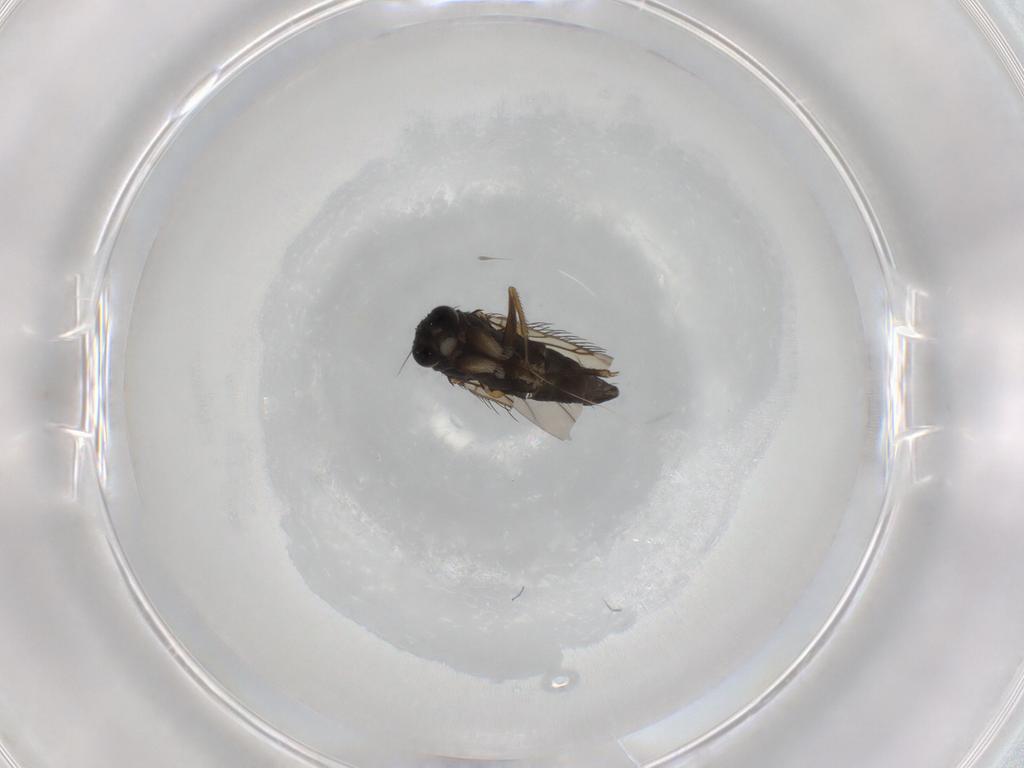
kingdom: Animalia
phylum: Arthropoda
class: Insecta
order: Diptera
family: Phoridae
